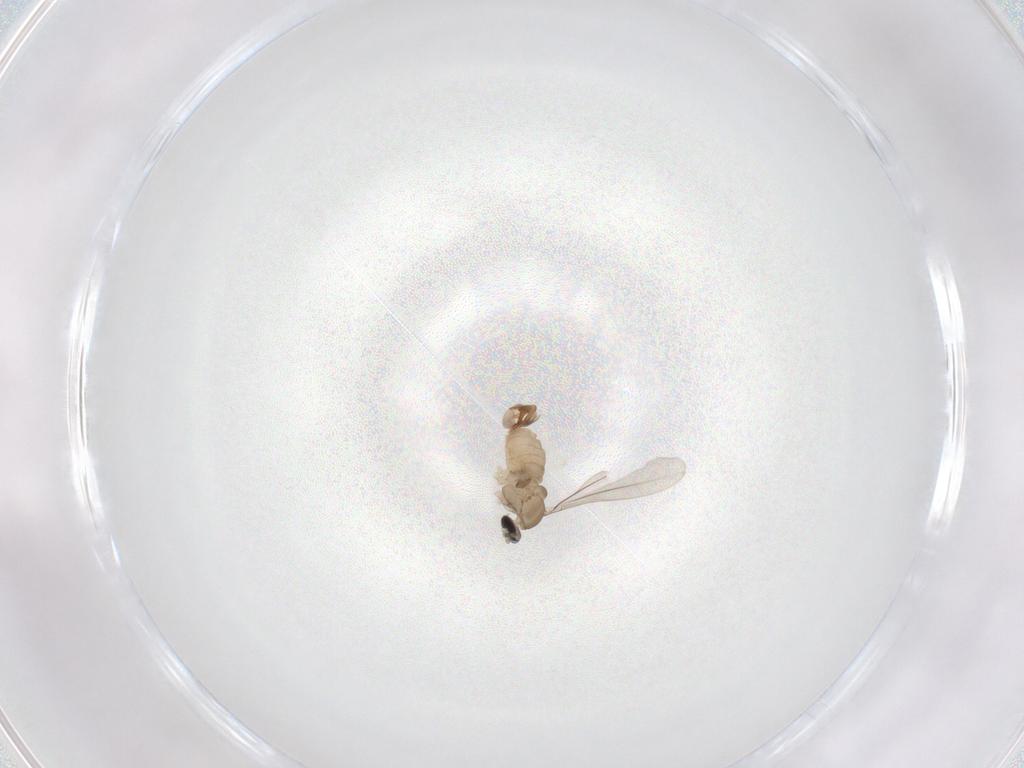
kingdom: Animalia
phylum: Arthropoda
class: Insecta
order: Diptera
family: Cecidomyiidae
